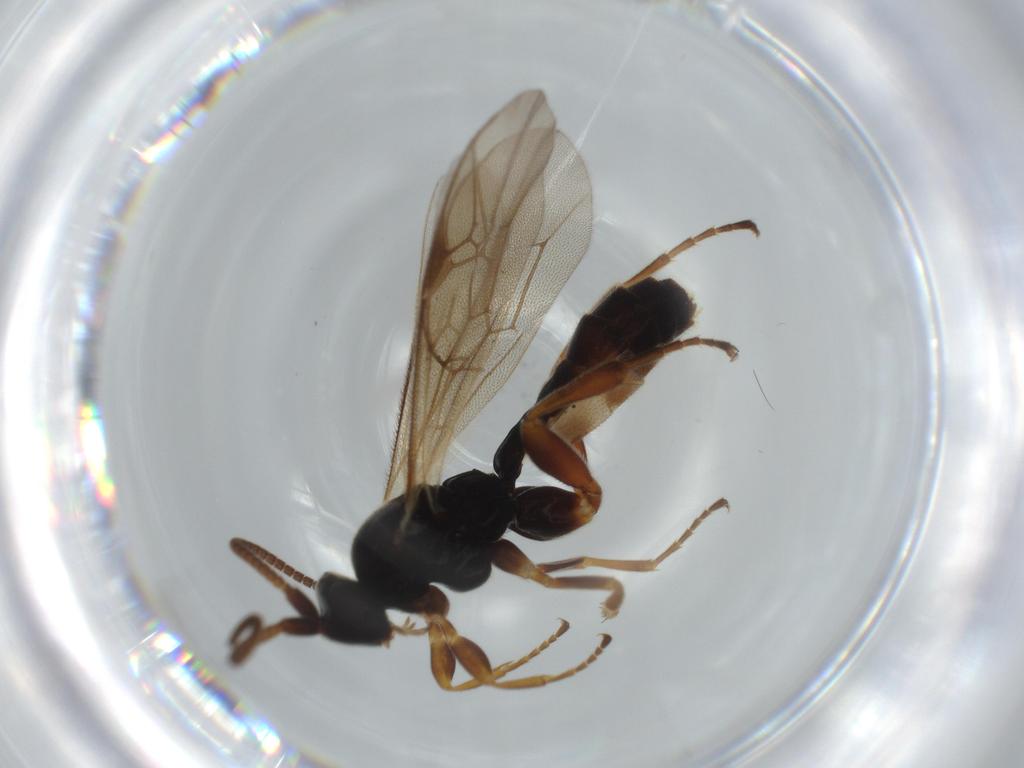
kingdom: Animalia
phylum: Arthropoda
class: Insecta
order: Hymenoptera
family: Ichneumonidae
